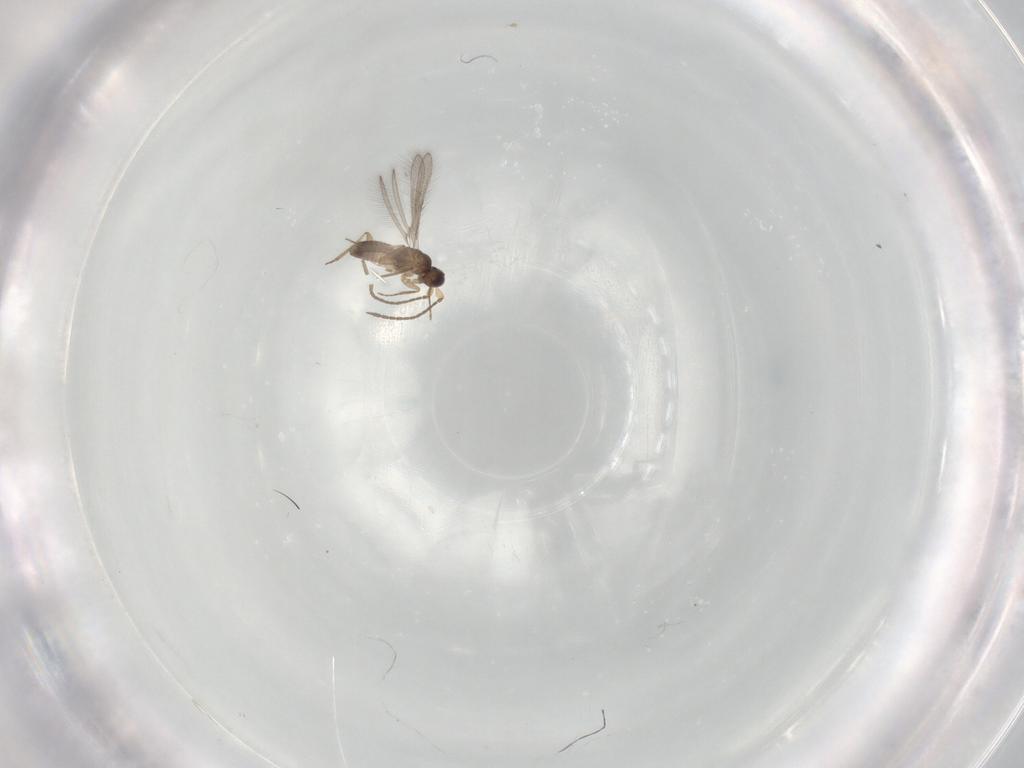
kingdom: Animalia
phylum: Arthropoda
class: Insecta
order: Hymenoptera
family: Mymaridae
